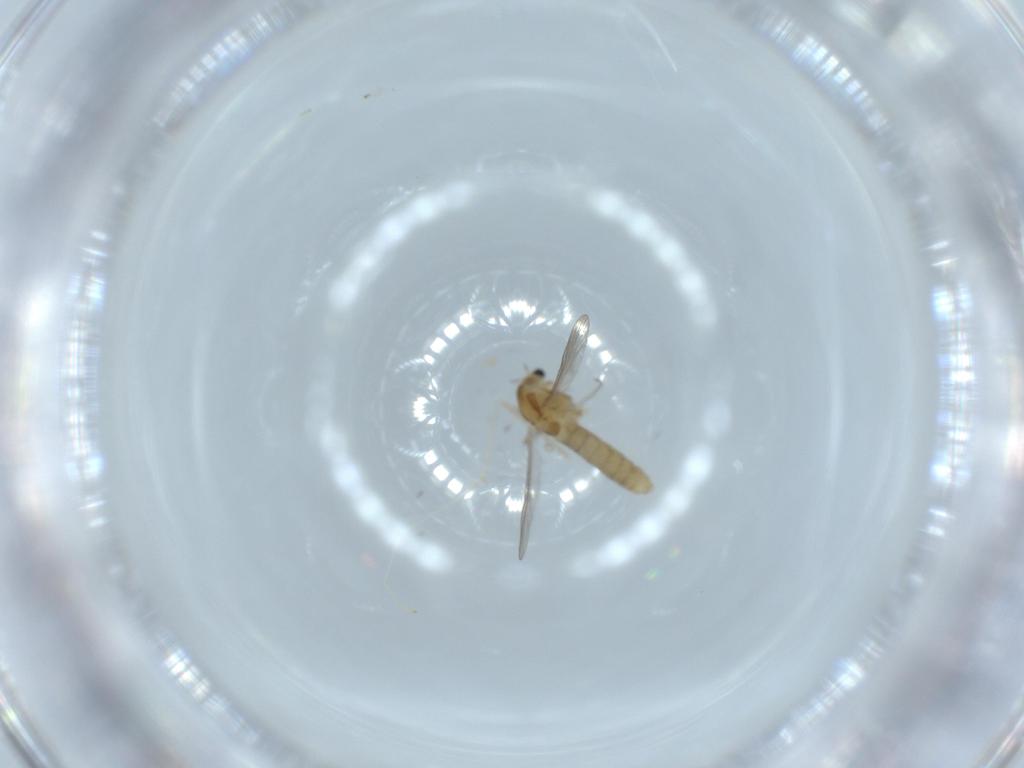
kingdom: Animalia
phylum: Arthropoda
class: Insecta
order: Diptera
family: Chironomidae
